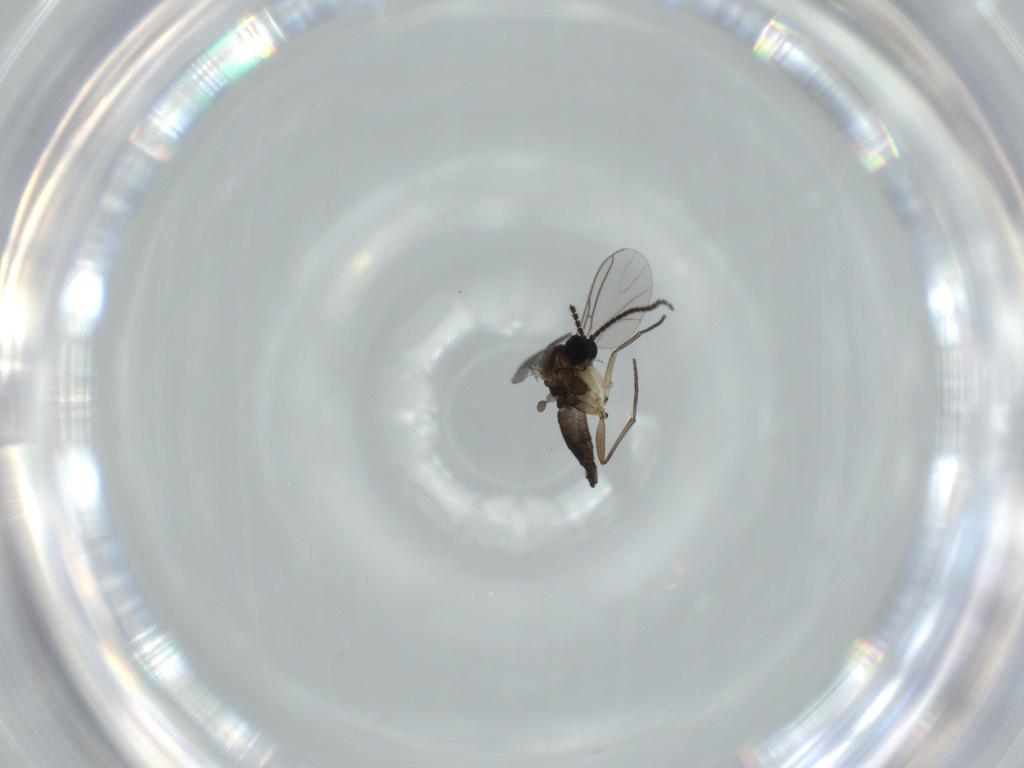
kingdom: Animalia
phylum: Arthropoda
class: Insecta
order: Diptera
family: Sciaridae
